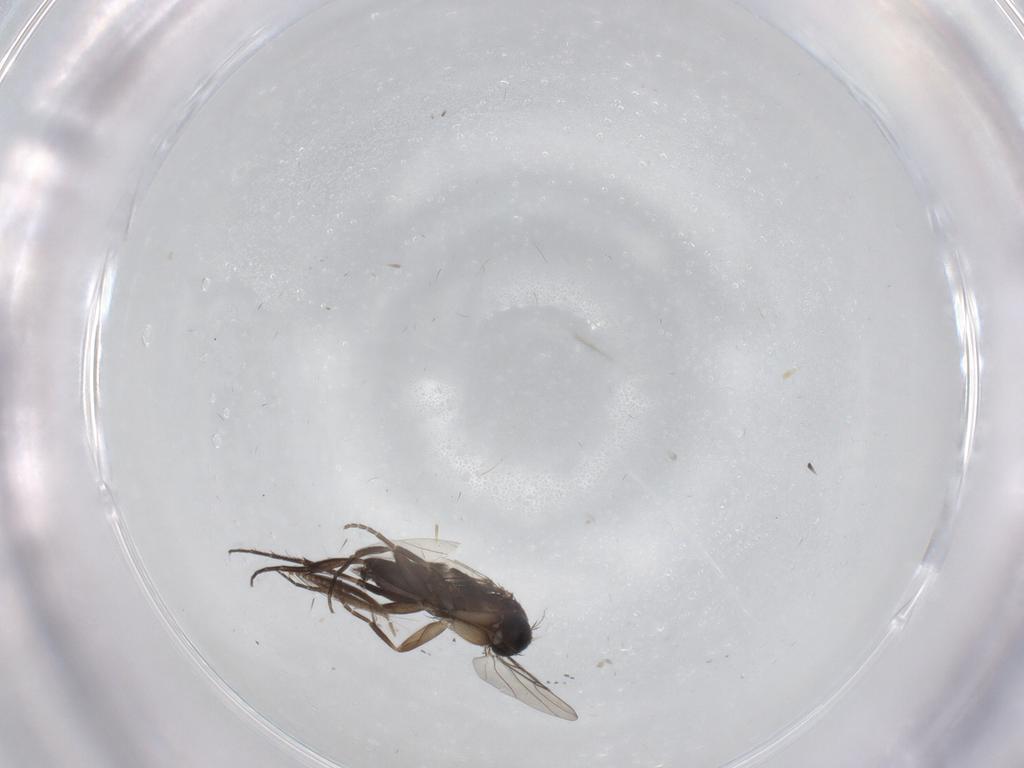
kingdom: Animalia
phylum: Arthropoda
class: Insecta
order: Diptera
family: Phoridae
